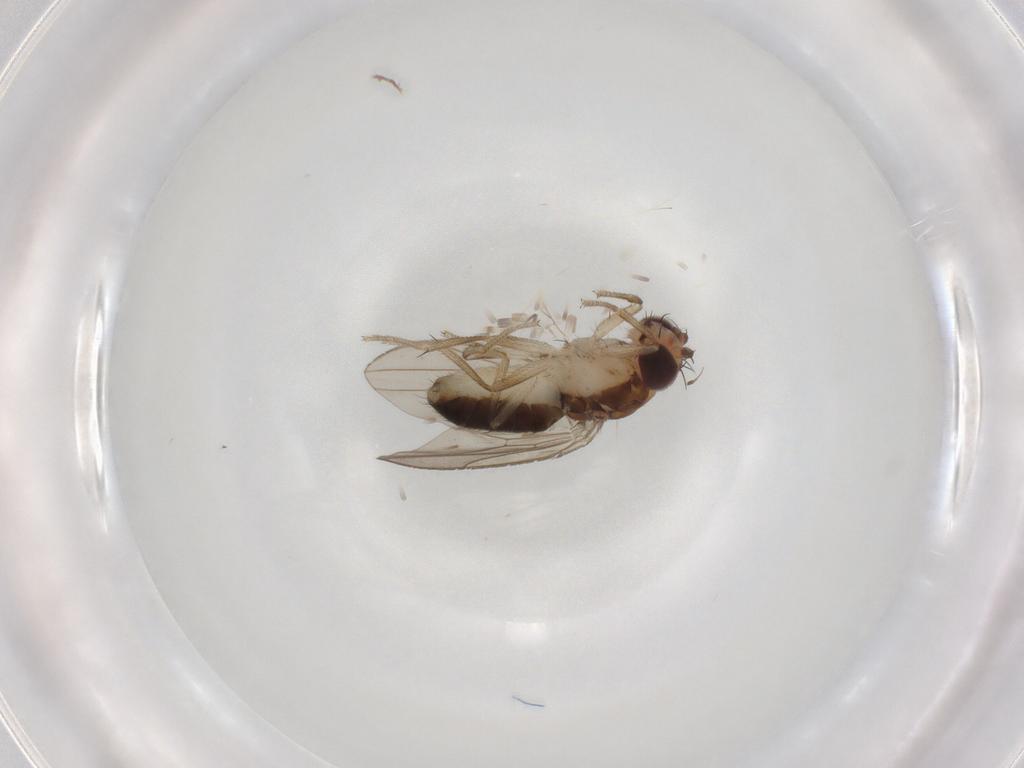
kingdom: Animalia
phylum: Arthropoda
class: Insecta
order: Diptera
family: Drosophilidae
